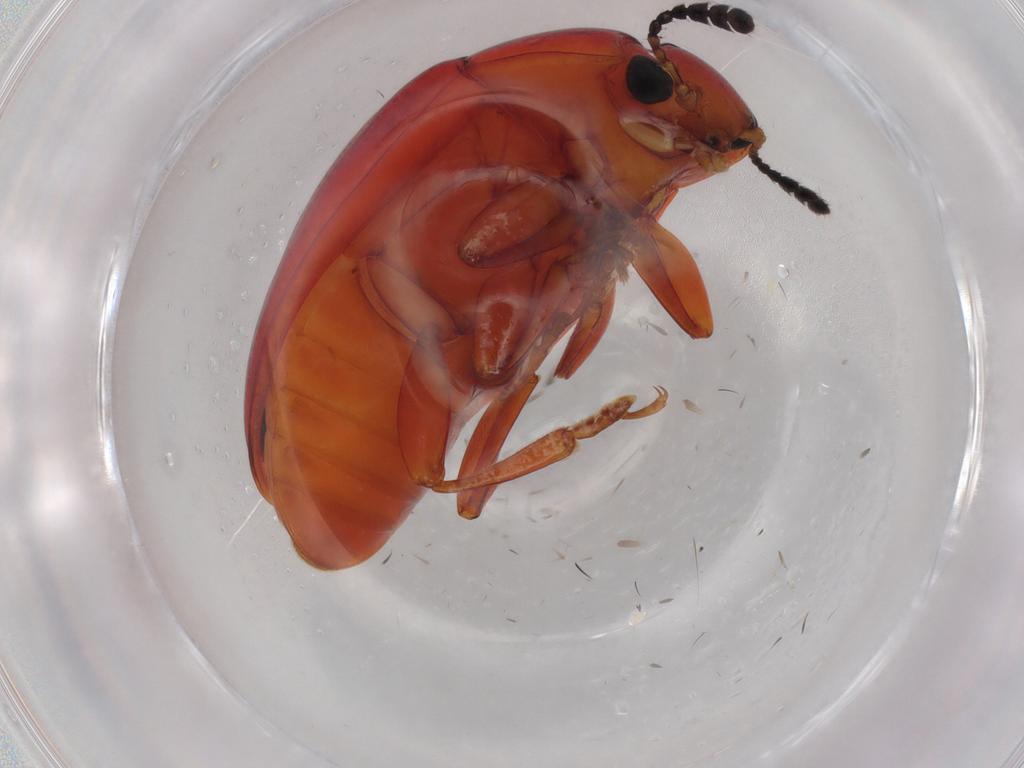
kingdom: Animalia
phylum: Arthropoda
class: Insecta
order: Coleoptera
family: Erotylidae
